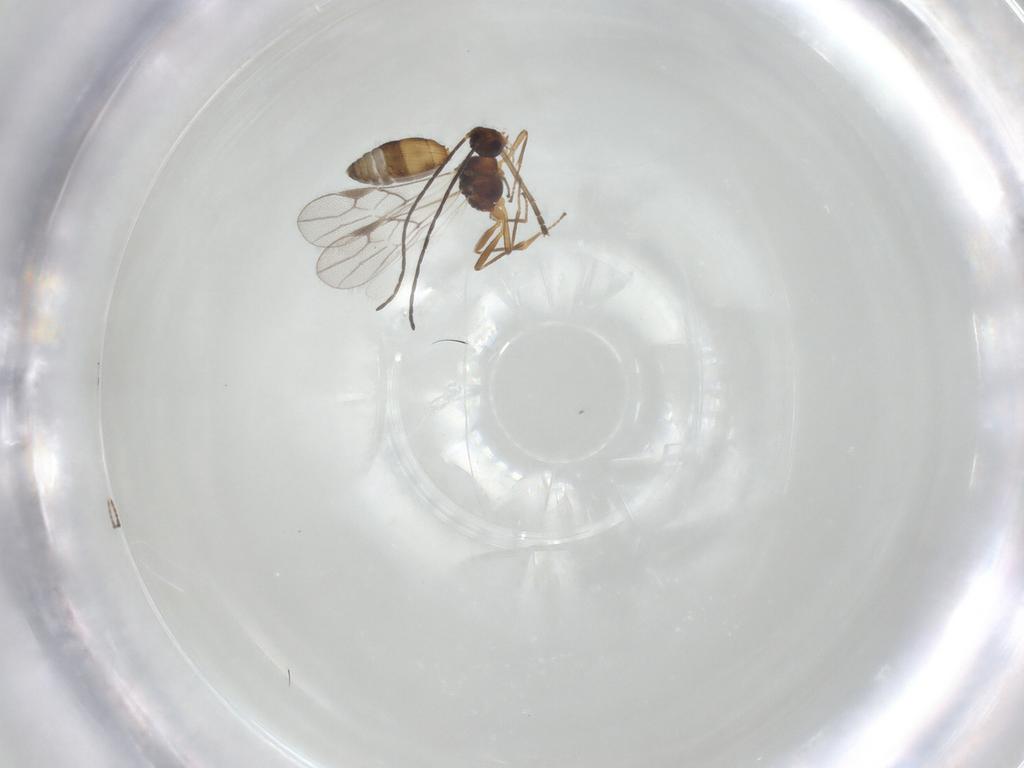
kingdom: Animalia
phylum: Arthropoda
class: Insecta
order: Hymenoptera
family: Braconidae
